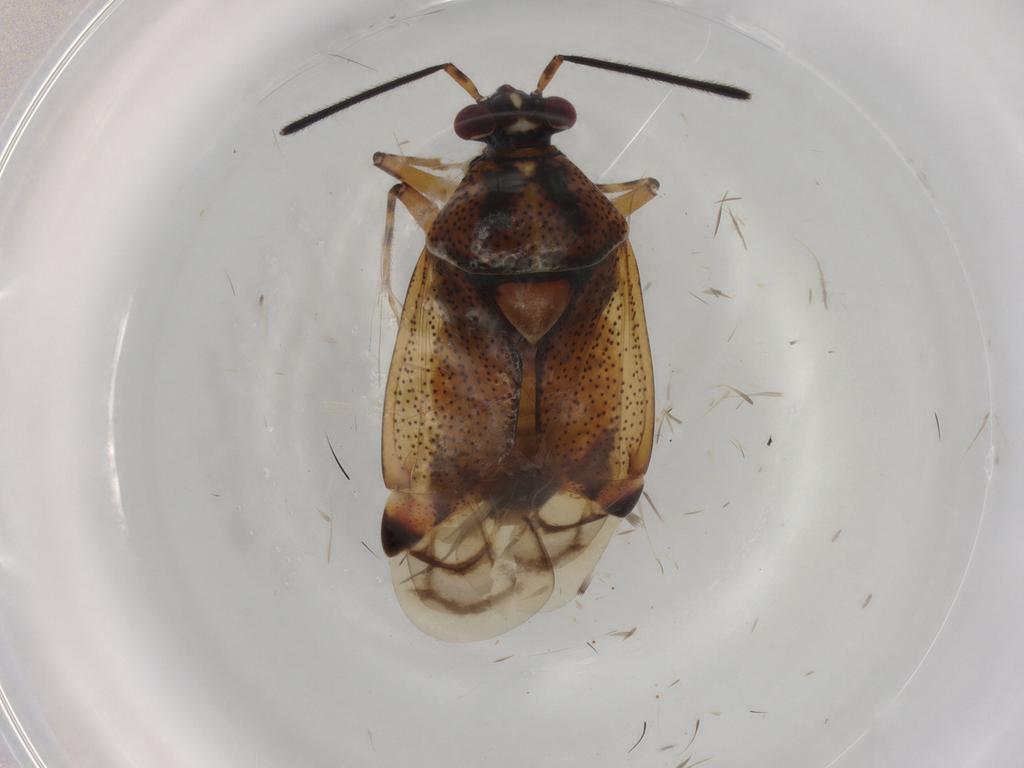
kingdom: Animalia
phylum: Arthropoda
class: Insecta
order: Hemiptera
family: Miridae
